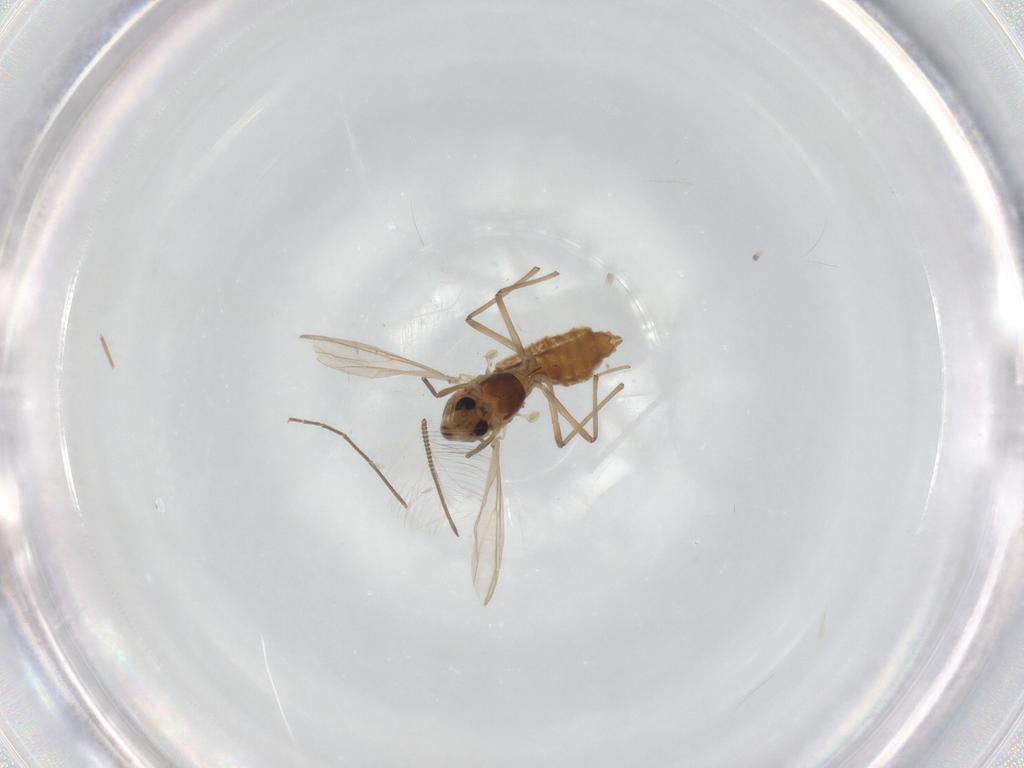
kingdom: Animalia
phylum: Arthropoda
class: Insecta
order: Diptera
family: Chironomidae
